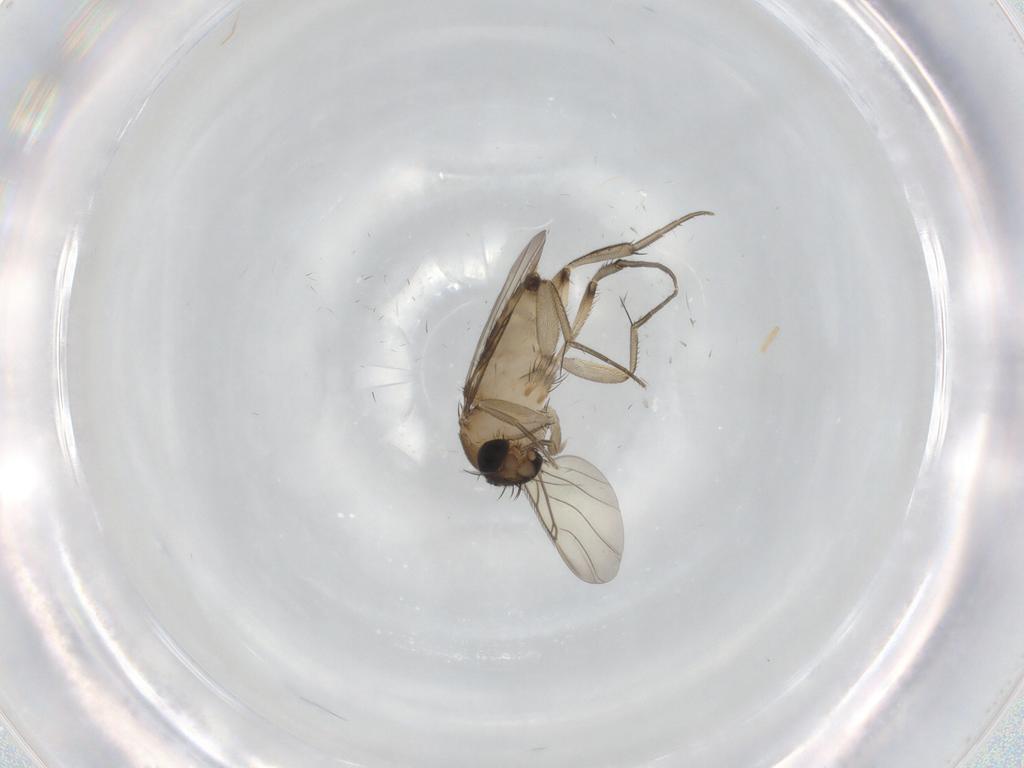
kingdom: Animalia
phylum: Arthropoda
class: Insecta
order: Diptera
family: Phoridae
